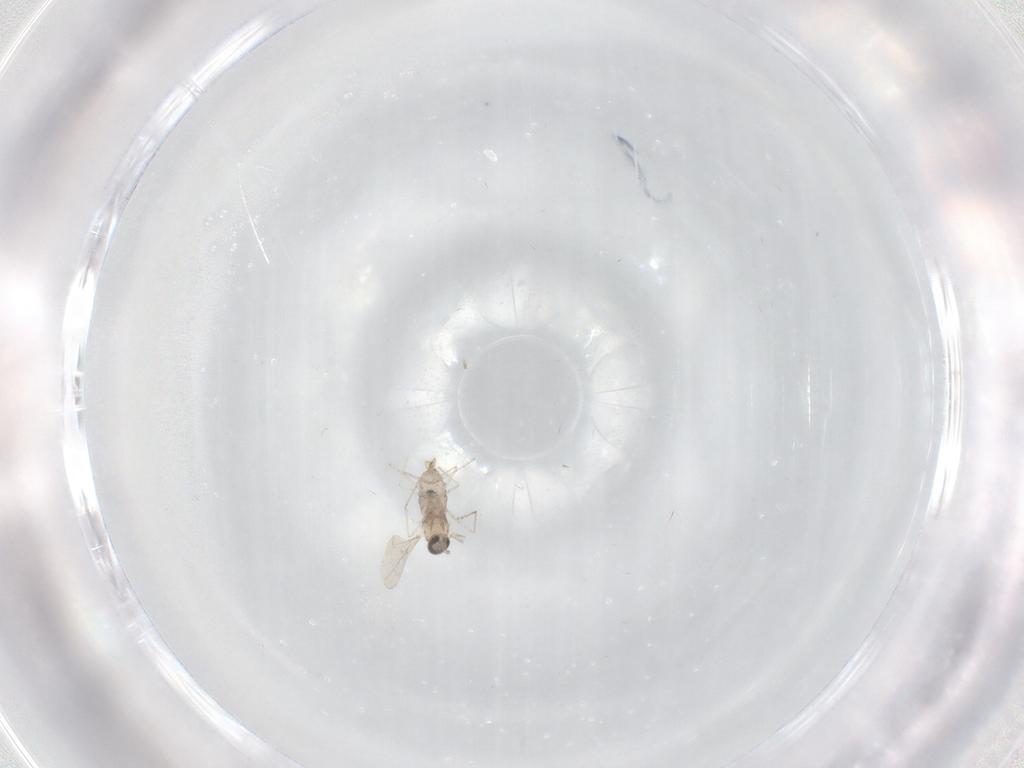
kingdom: Animalia
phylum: Arthropoda
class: Insecta
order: Diptera
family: Cecidomyiidae
